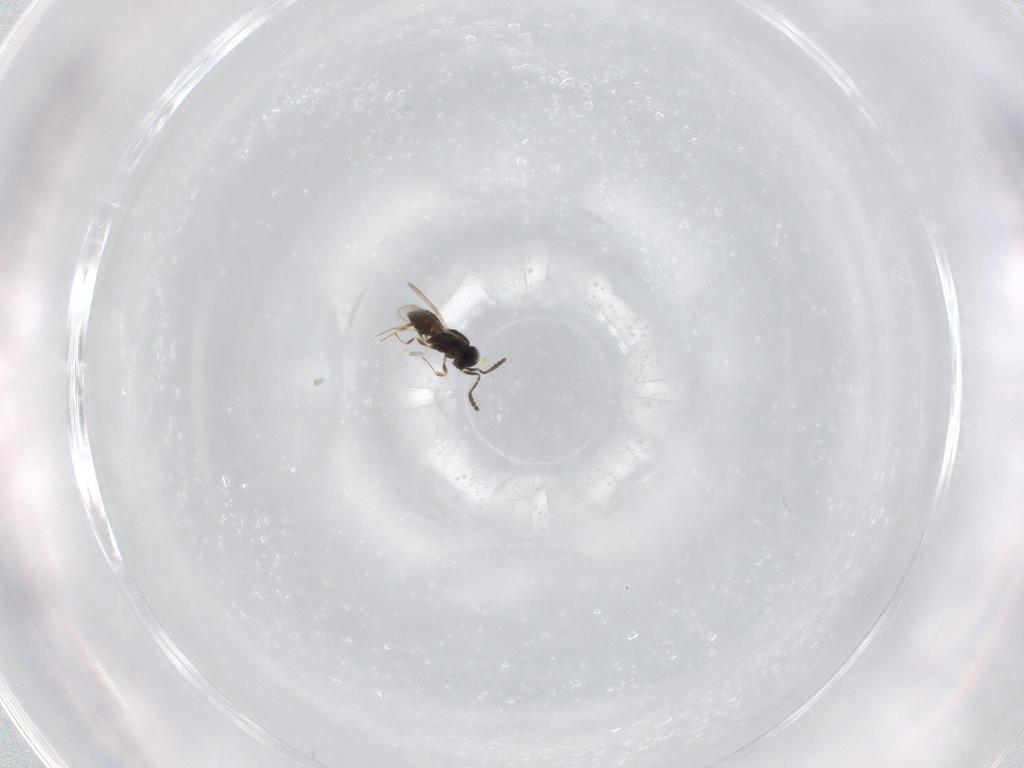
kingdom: Animalia
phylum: Arthropoda
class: Insecta
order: Hymenoptera
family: Scelionidae
